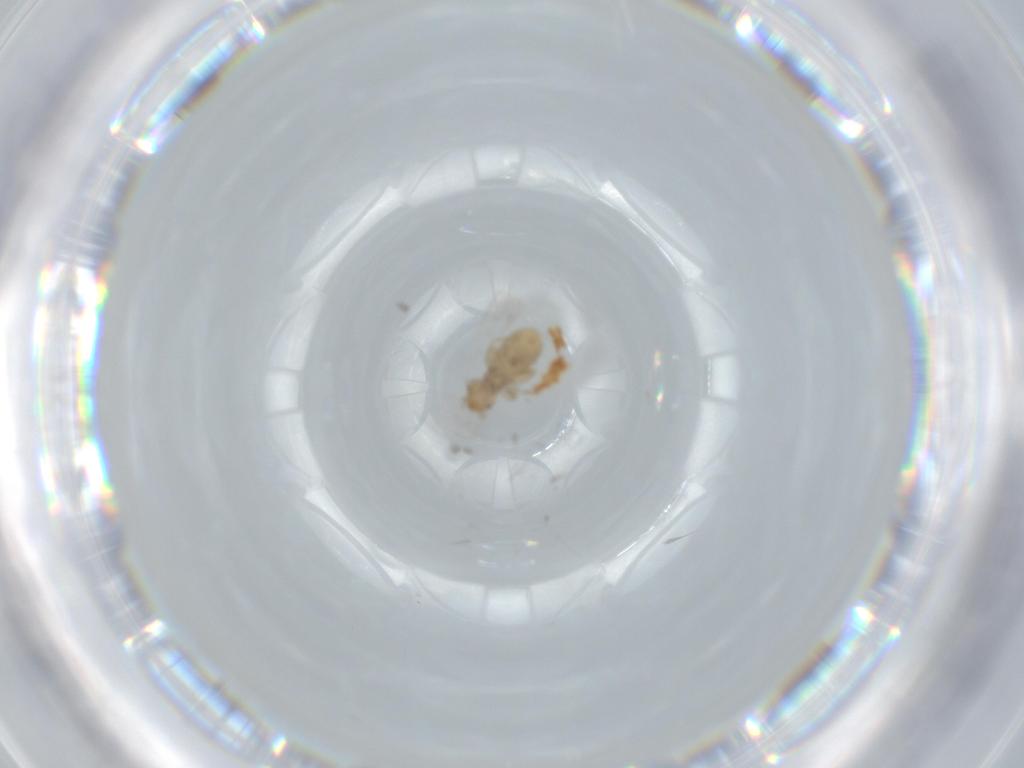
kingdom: Animalia
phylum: Arthropoda
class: Insecta
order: Psocodea
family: Liposcelididae
